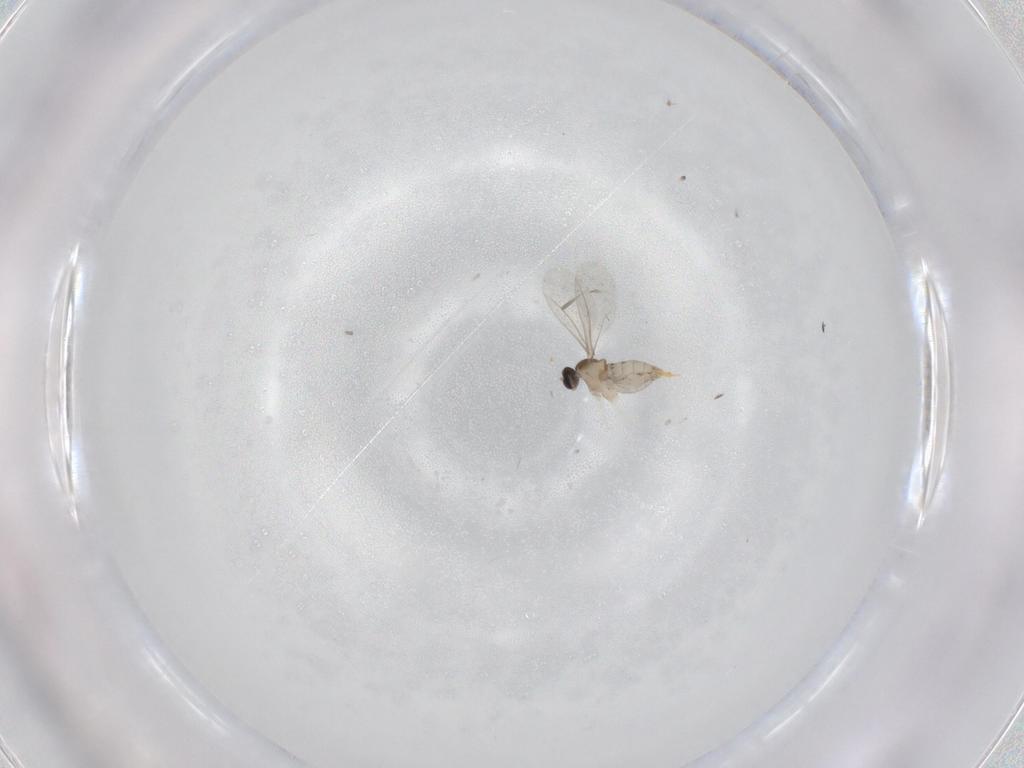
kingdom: Animalia
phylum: Arthropoda
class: Insecta
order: Diptera
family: Cecidomyiidae
